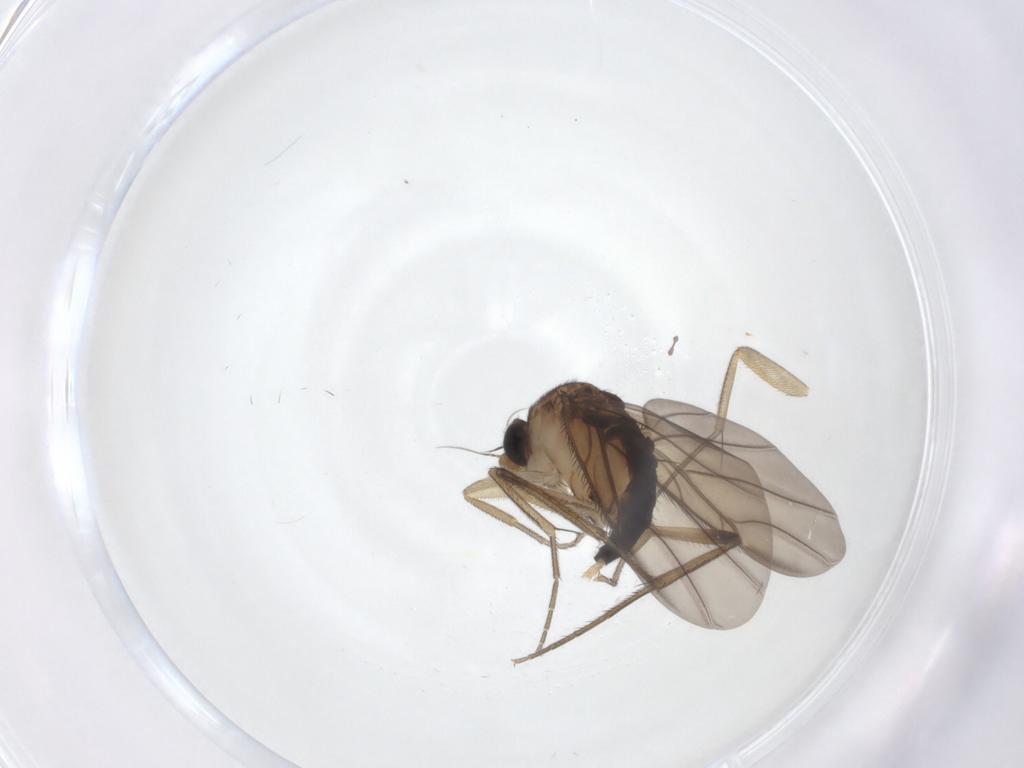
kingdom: Animalia
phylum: Arthropoda
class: Insecta
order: Diptera
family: Phoridae
